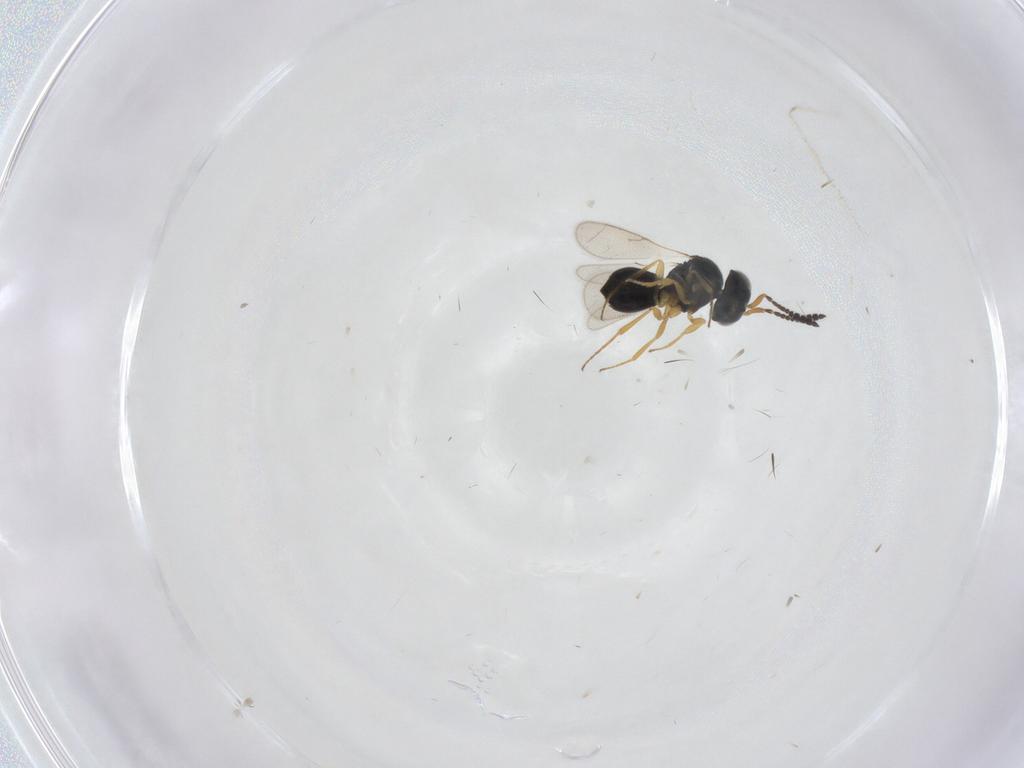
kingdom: Animalia
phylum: Arthropoda
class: Insecta
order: Hymenoptera
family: Scelionidae
